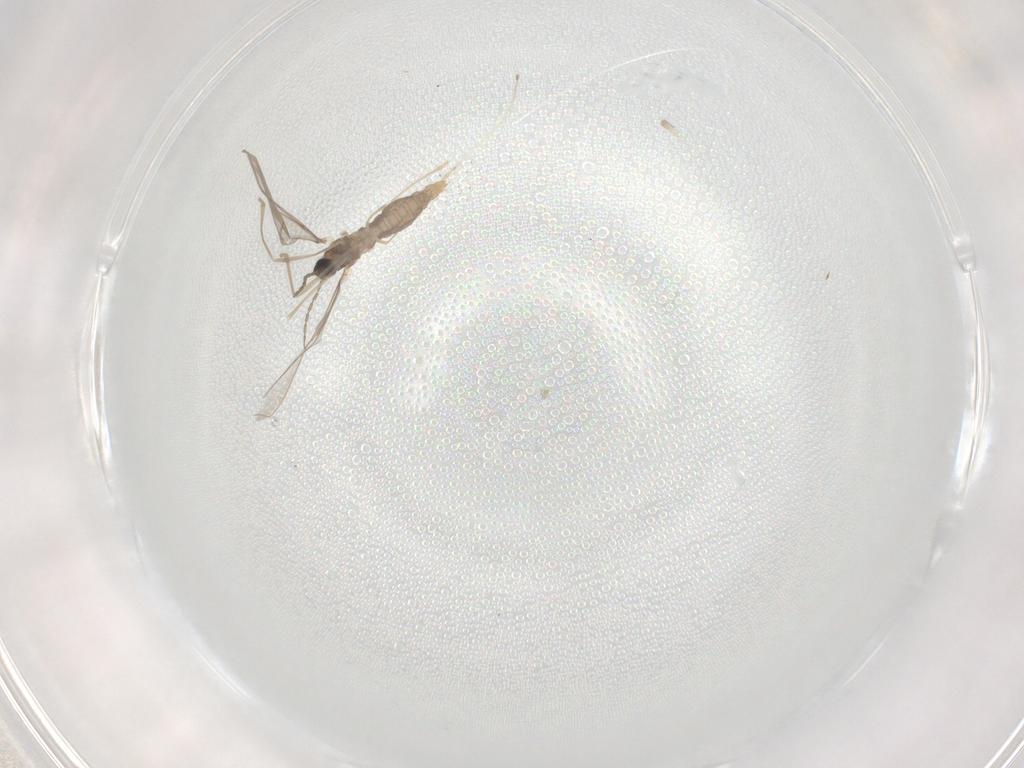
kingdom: Animalia
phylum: Arthropoda
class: Insecta
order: Diptera
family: Cecidomyiidae
